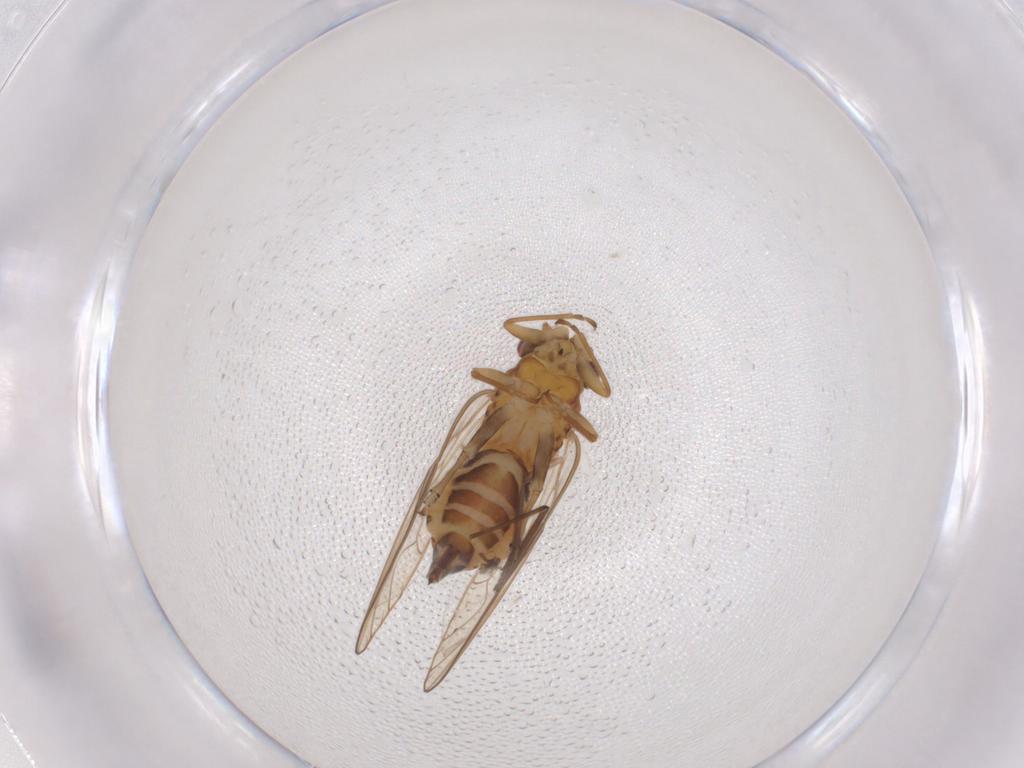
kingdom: Animalia
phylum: Arthropoda
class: Insecta
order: Hemiptera
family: Psyllidae
